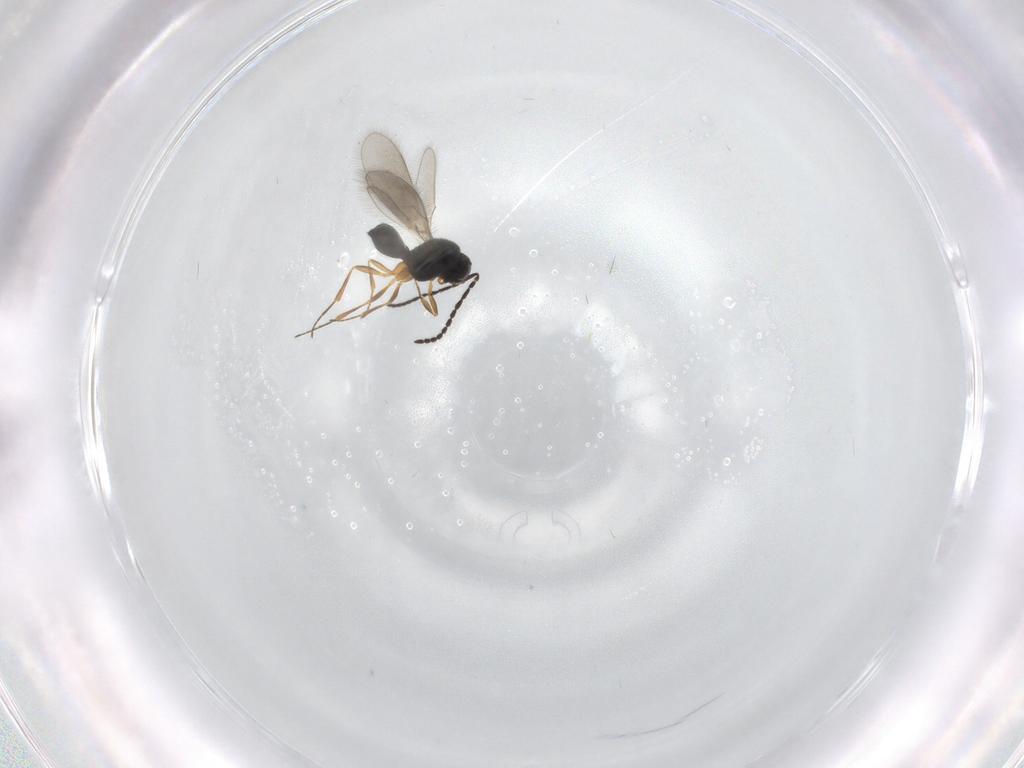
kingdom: Animalia
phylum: Arthropoda
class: Insecta
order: Hymenoptera
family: Scelionidae
